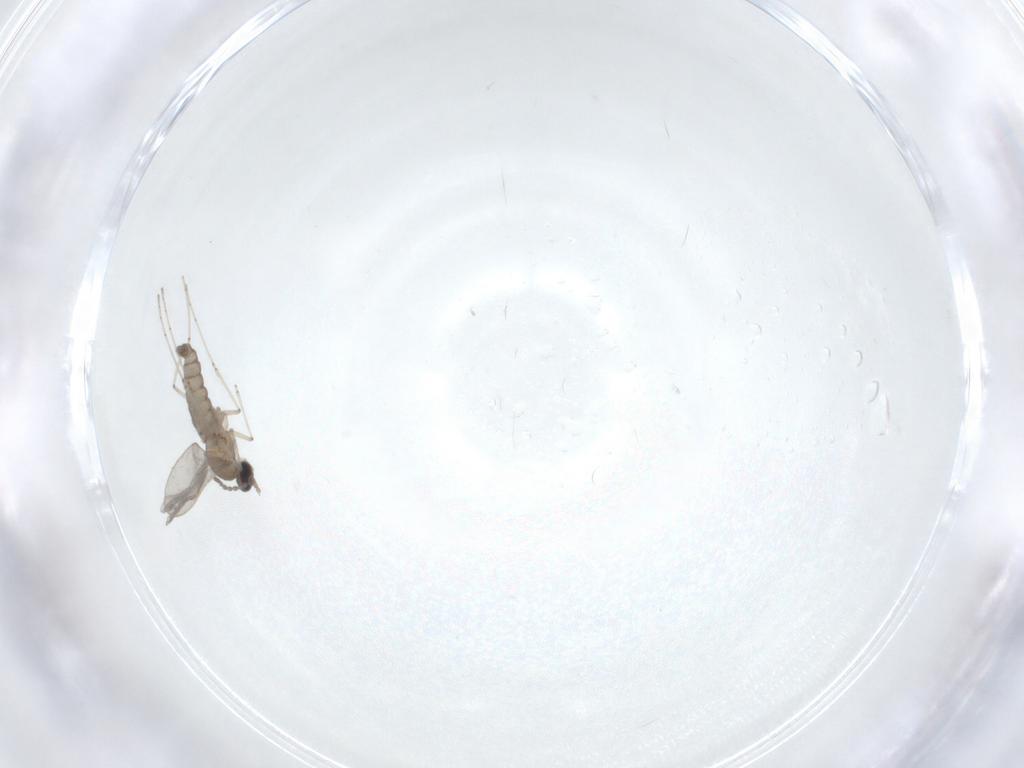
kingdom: Animalia
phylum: Arthropoda
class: Insecta
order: Diptera
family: Cecidomyiidae
